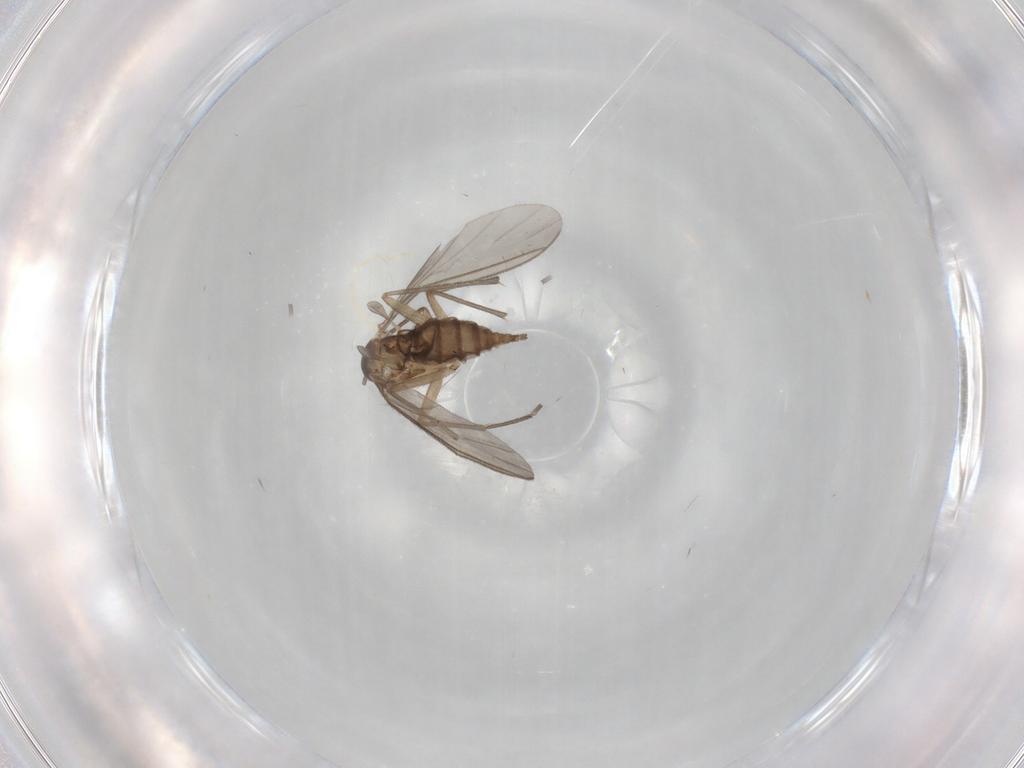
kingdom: Animalia
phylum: Arthropoda
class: Insecta
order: Diptera
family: Sciaridae
